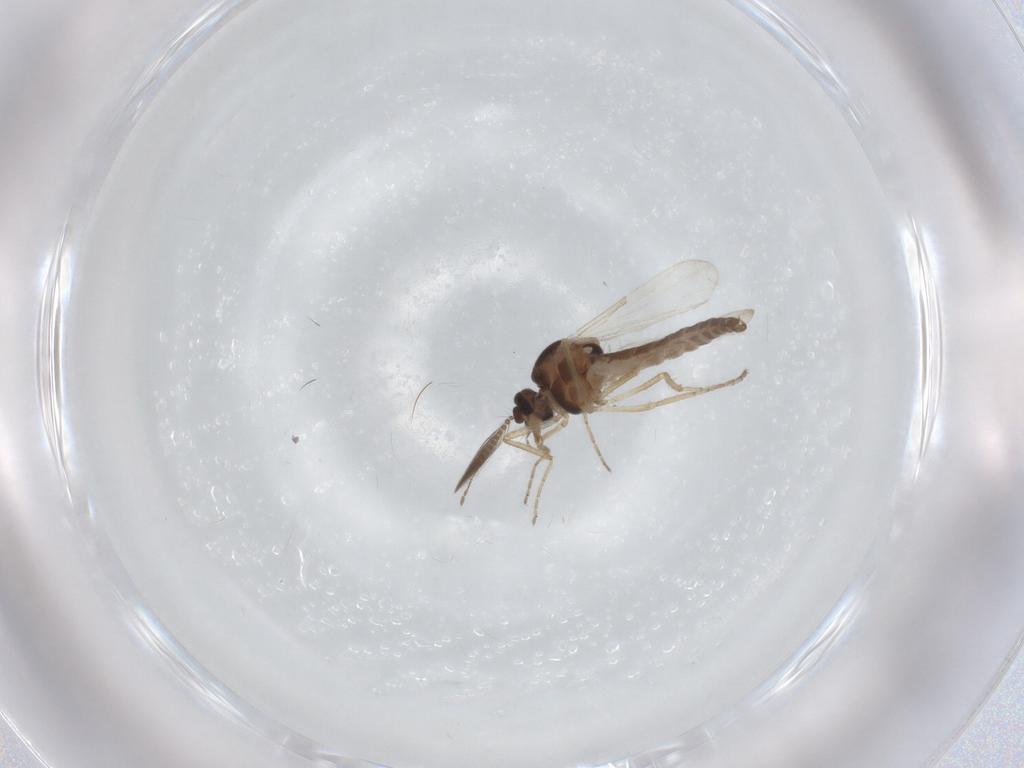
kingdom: Animalia
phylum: Arthropoda
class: Insecta
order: Diptera
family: Ceratopogonidae
